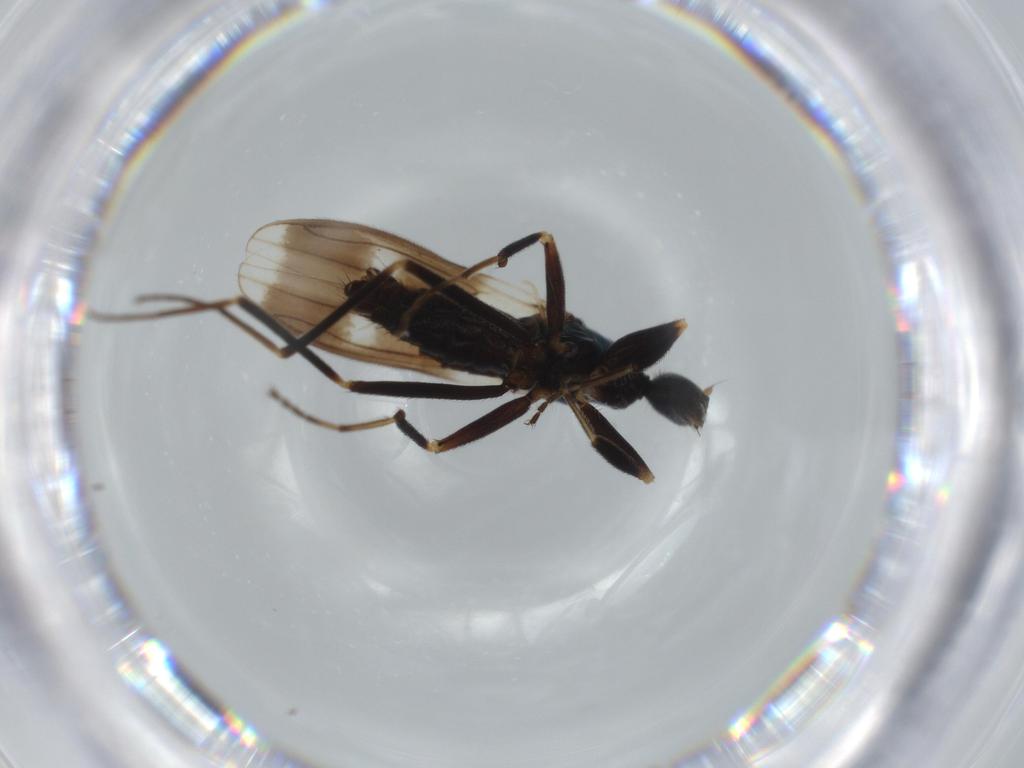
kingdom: Animalia
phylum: Arthropoda
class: Insecta
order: Diptera
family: Hybotidae
